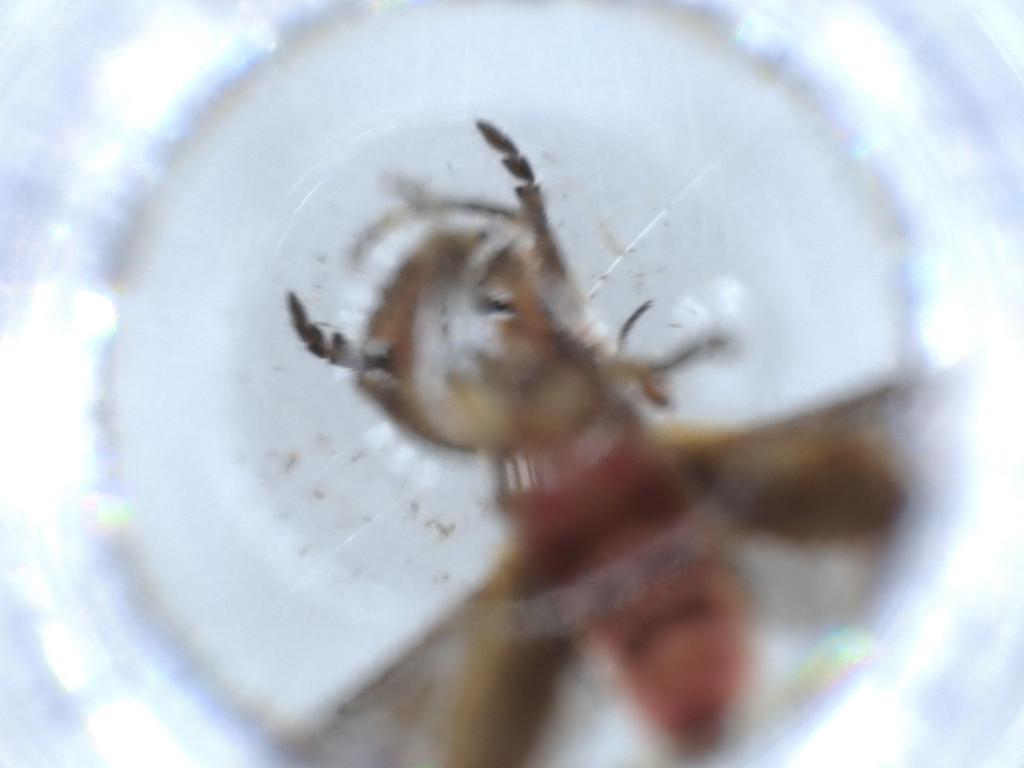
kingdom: Animalia
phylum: Arthropoda
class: Insecta
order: Coleoptera
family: Cleridae
